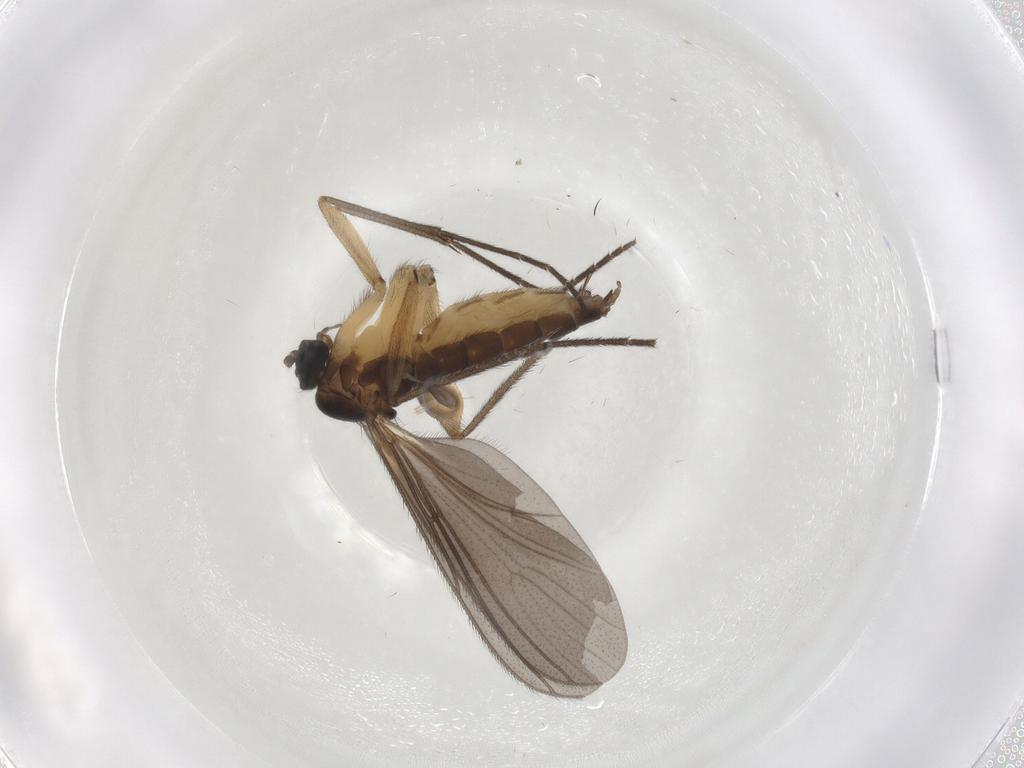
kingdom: Animalia
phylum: Arthropoda
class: Insecta
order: Diptera
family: Sciaridae
